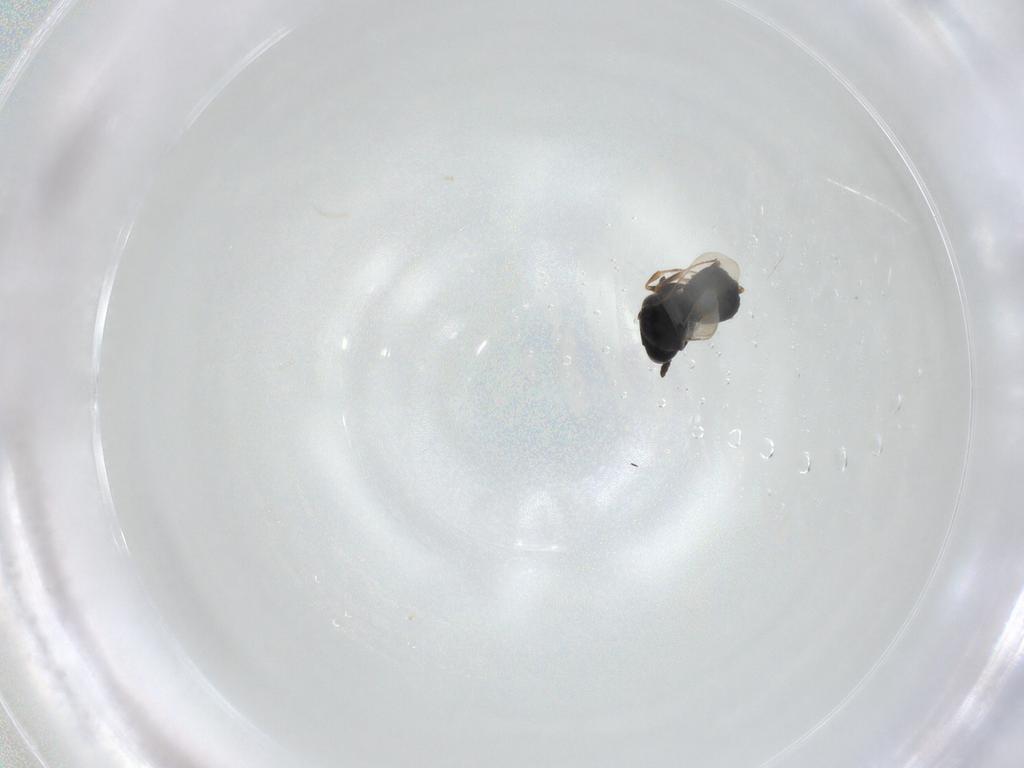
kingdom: Animalia
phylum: Arthropoda
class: Insecta
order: Hymenoptera
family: Scelionidae
